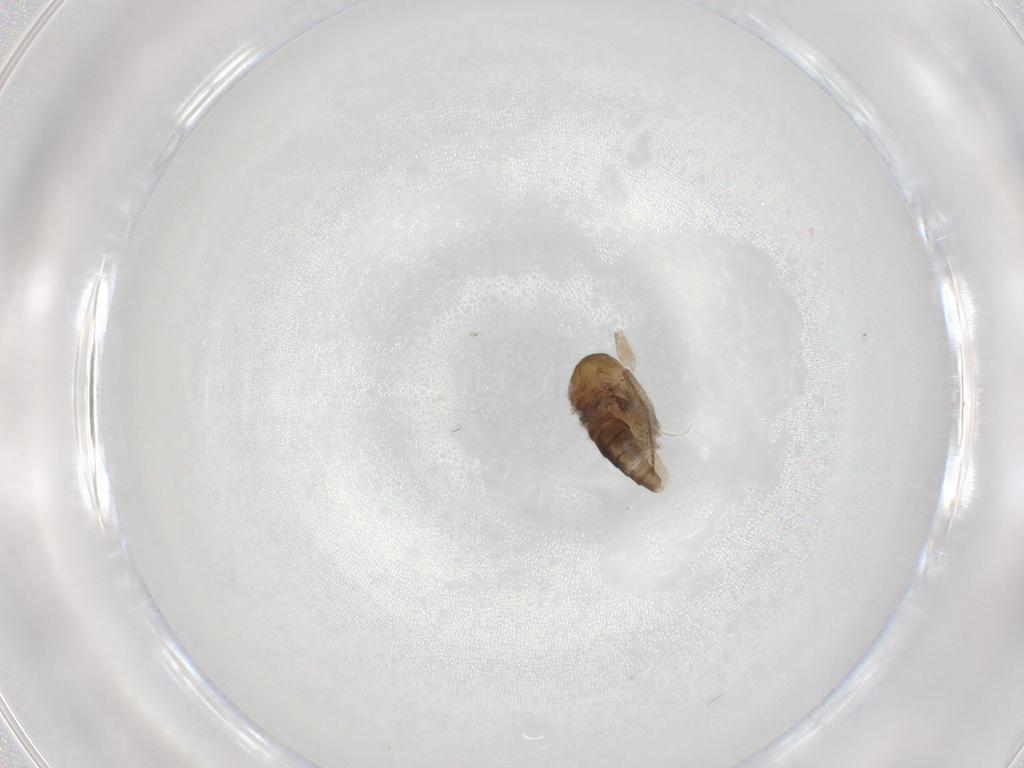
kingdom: Animalia
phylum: Arthropoda
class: Insecta
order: Diptera
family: Phoridae
